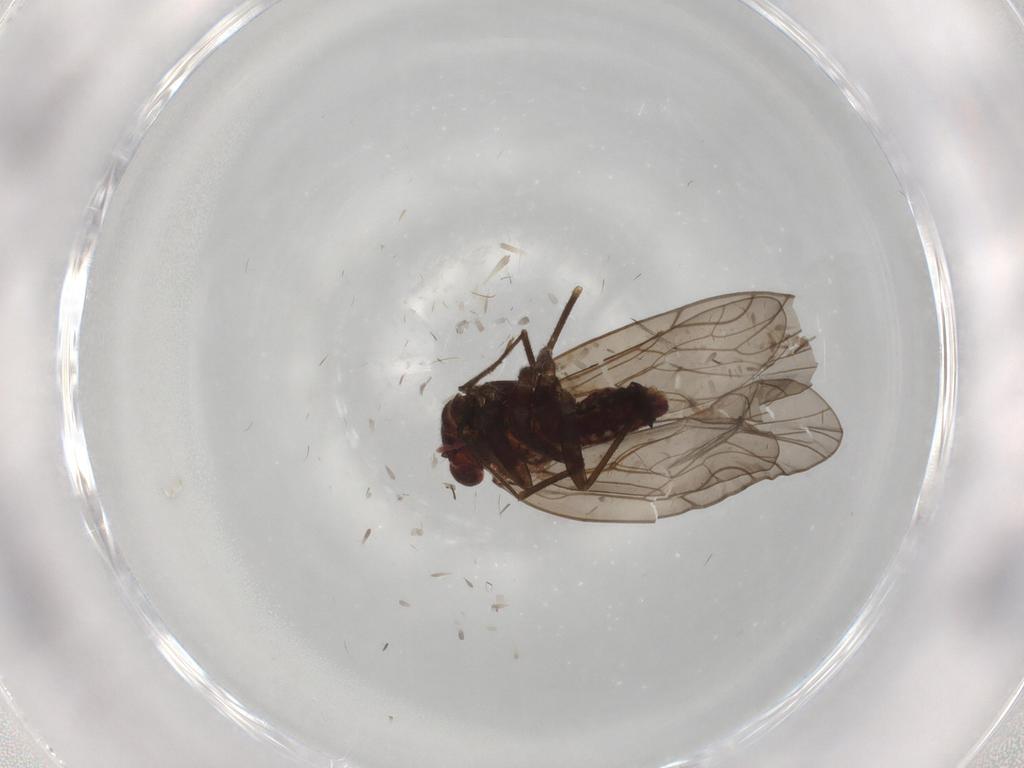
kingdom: Animalia
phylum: Arthropoda
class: Insecta
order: Psocodea
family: Philotarsidae
